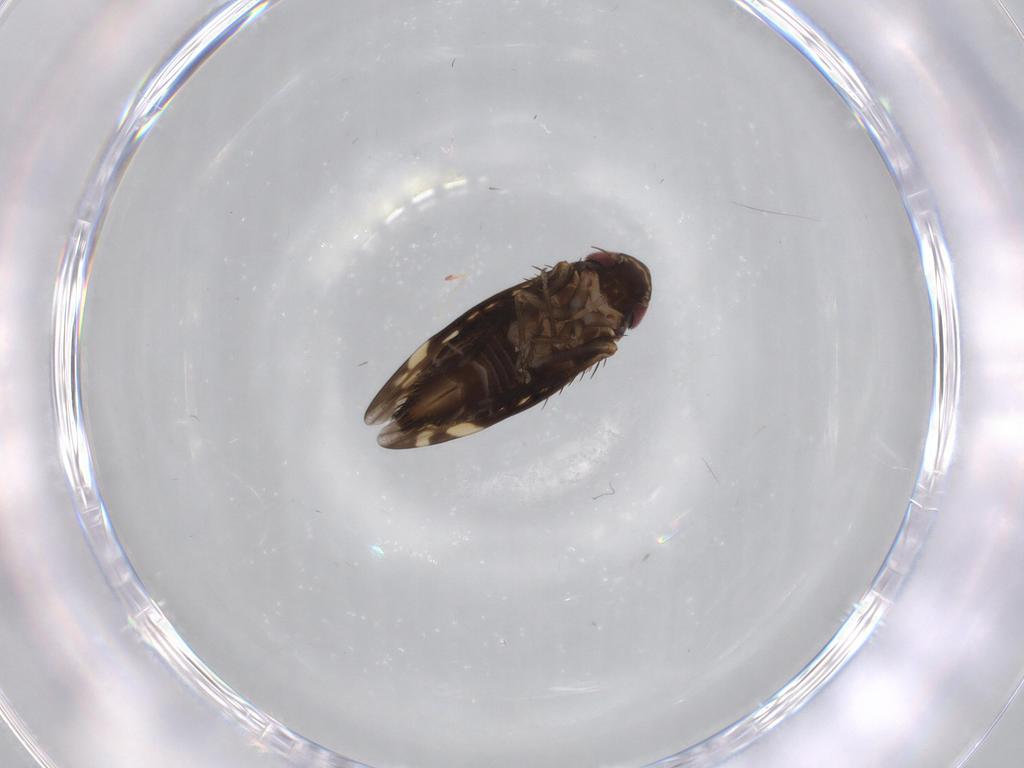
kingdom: Animalia
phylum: Arthropoda
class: Insecta
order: Hemiptera
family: Cicadellidae
